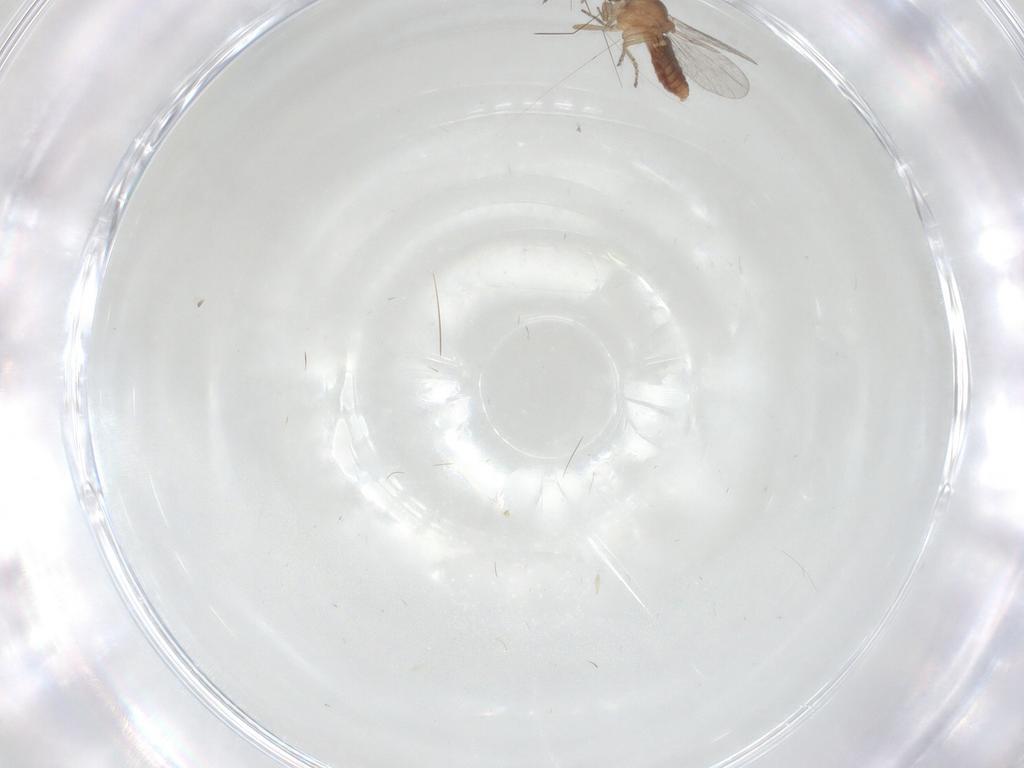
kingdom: Animalia
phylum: Arthropoda
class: Insecta
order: Diptera
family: Ceratopogonidae
